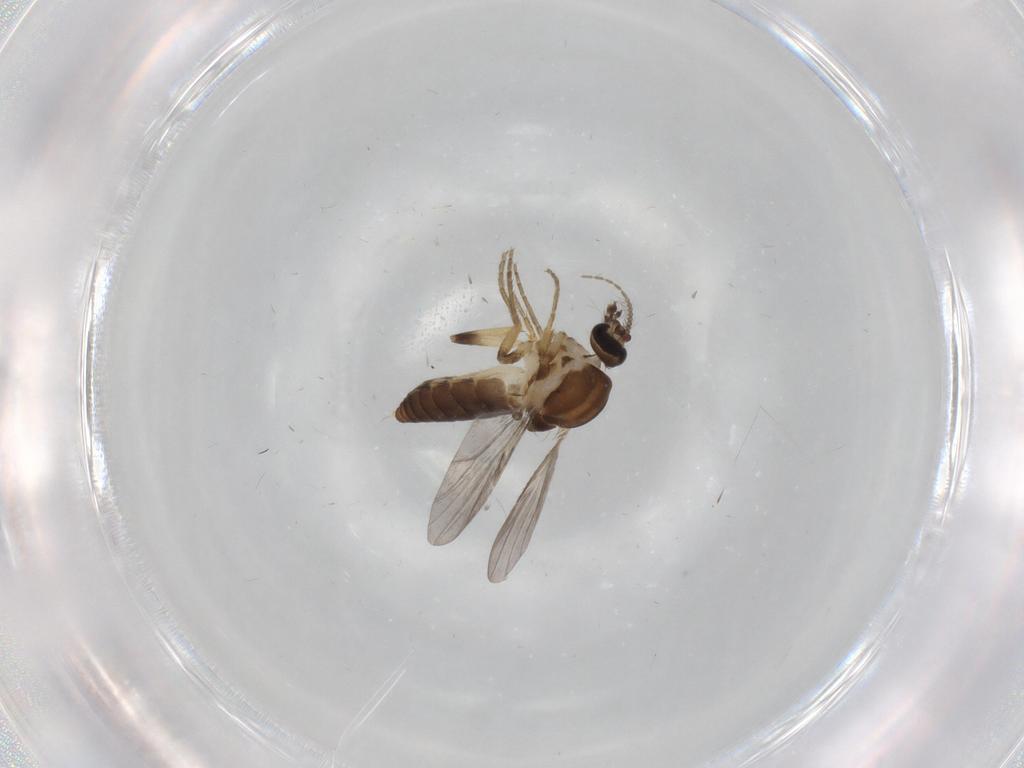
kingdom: Animalia
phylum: Arthropoda
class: Insecta
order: Diptera
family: Ceratopogonidae
